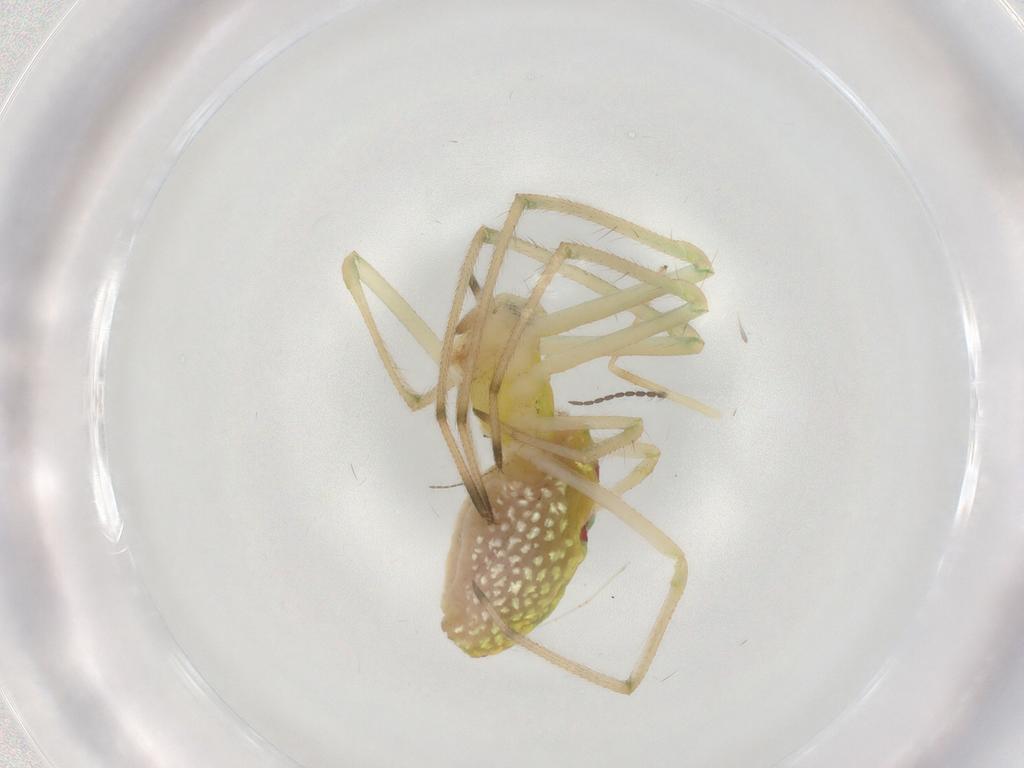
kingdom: Animalia
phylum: Arthropoda
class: Arachnida
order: Araneae
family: Tetragnathidae
